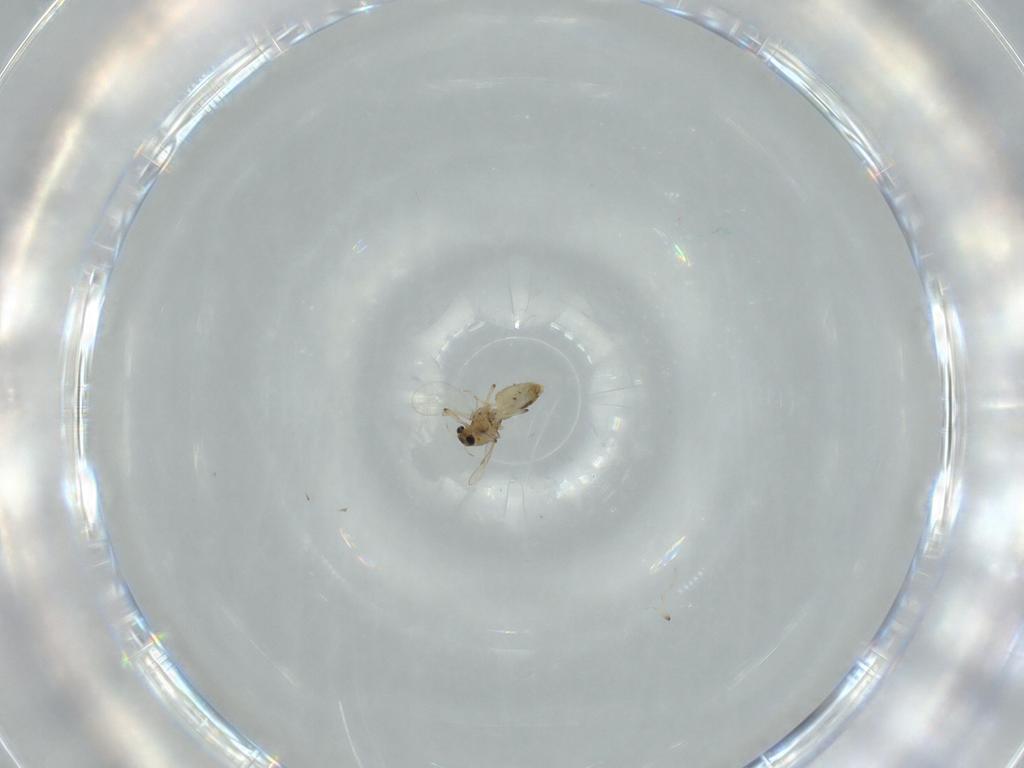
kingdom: Animalia
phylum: Arthropoda
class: Insecta
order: Diptera
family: Chironomidae
